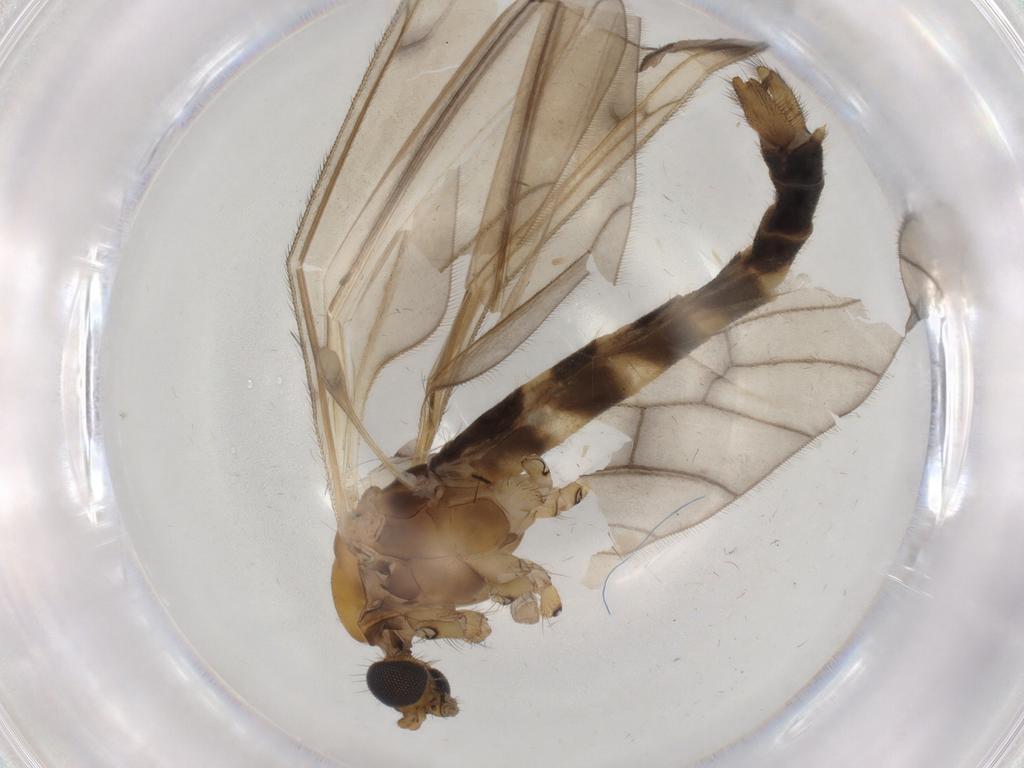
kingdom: Animalia
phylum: Arthropoda
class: Insecta
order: Diptera
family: Limoniidae
